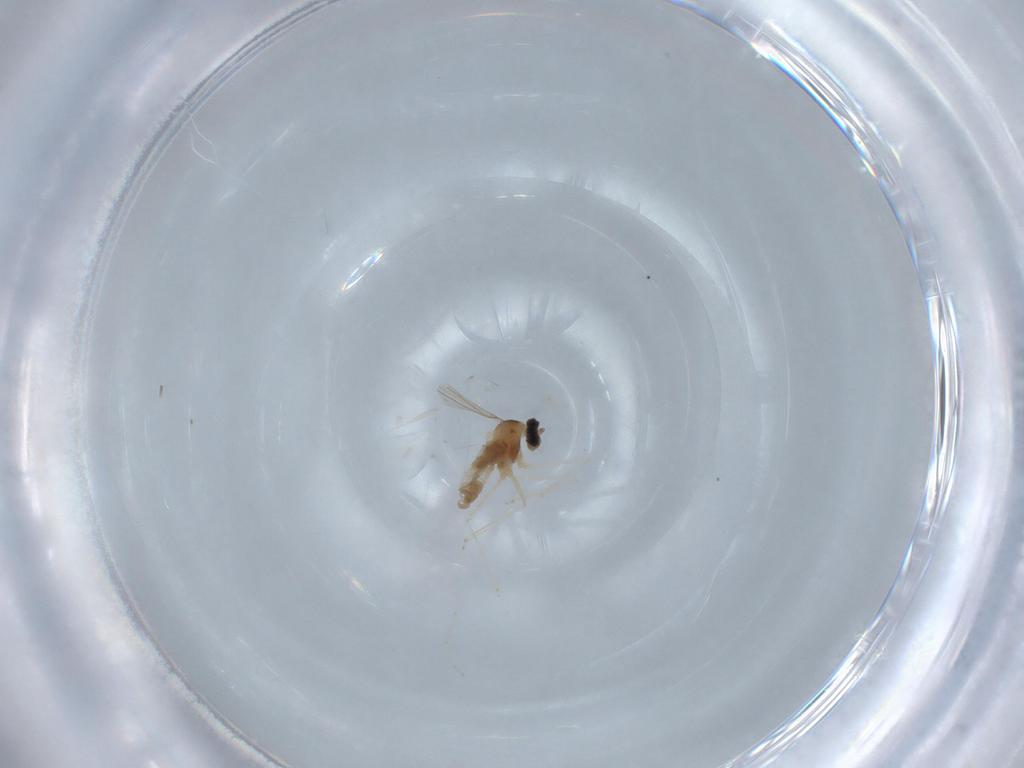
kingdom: Animalia
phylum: Arthropoda
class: Insecta
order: Diptera
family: Cecidomyiidae
